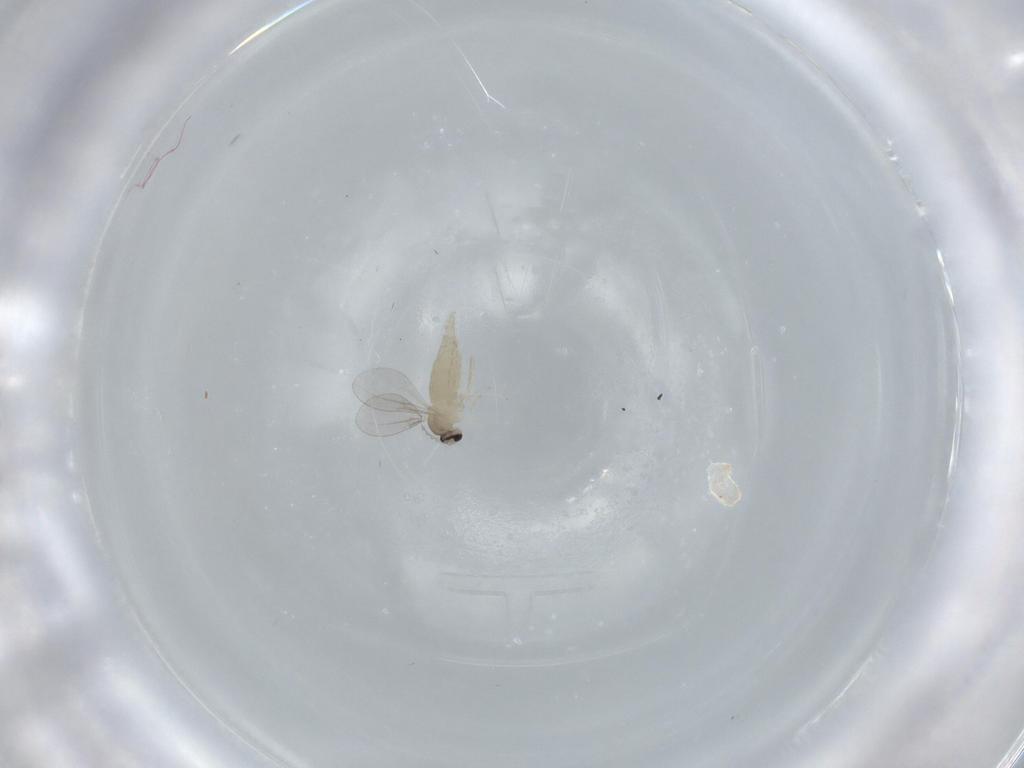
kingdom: Animalia
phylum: Arthropoda
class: Insecta
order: Diptera
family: Cecidomyiidae
